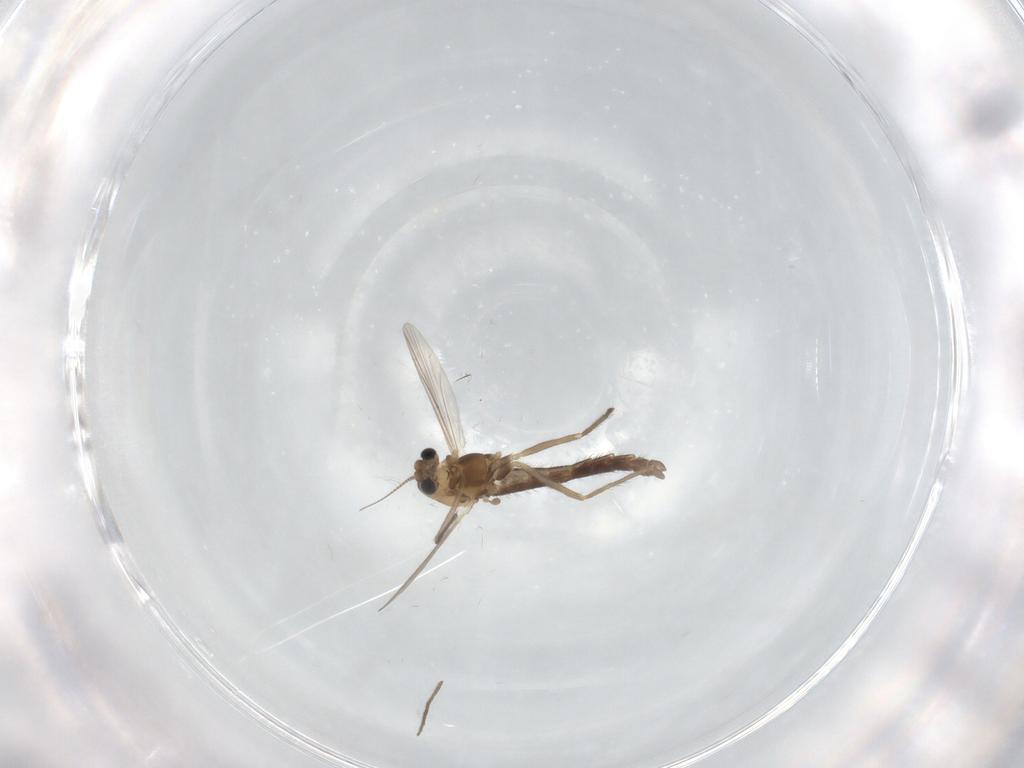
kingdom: Animalia
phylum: Arthropoda
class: Insecta
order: Diptera
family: Chironomidae
